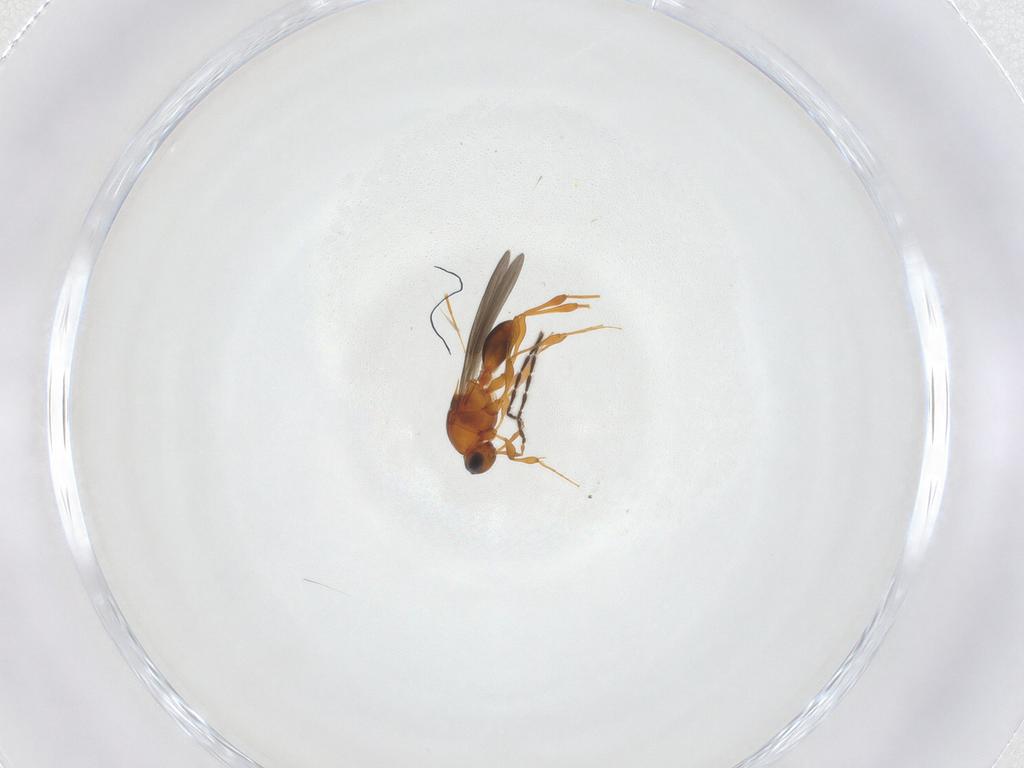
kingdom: Animalia
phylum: Arthropoda
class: Insecta
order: Hymenoptera
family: Platygastridae
